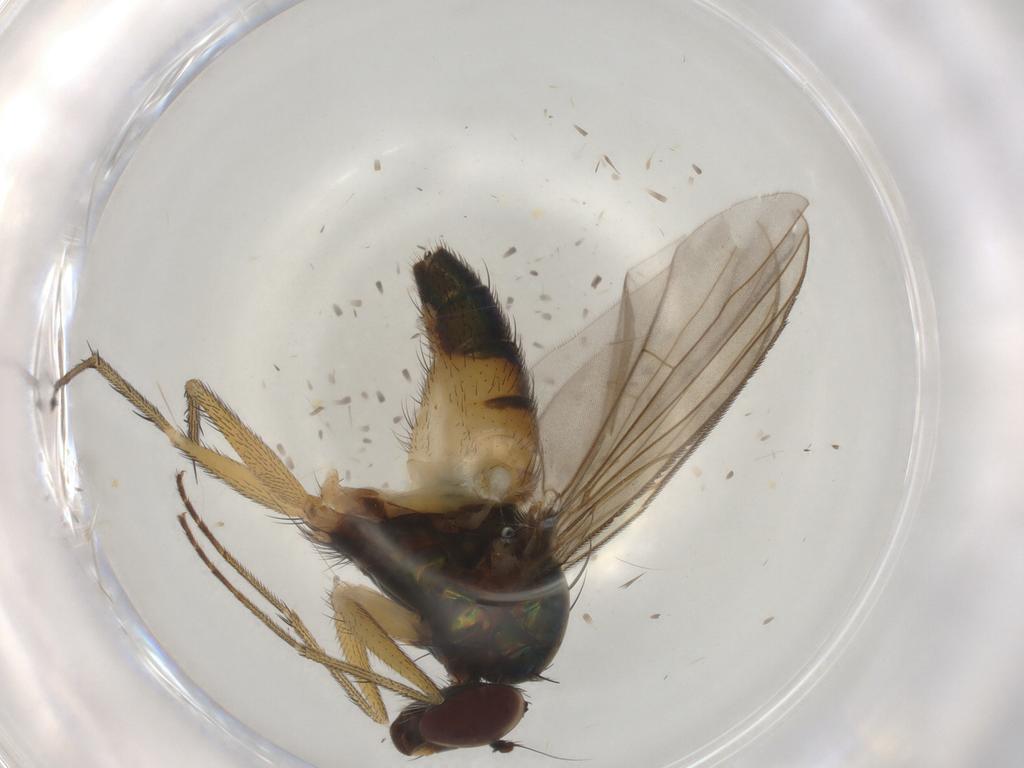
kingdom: Animalia
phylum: Arthropoda
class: Insecta
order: Diptera
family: Dolichopodidae
